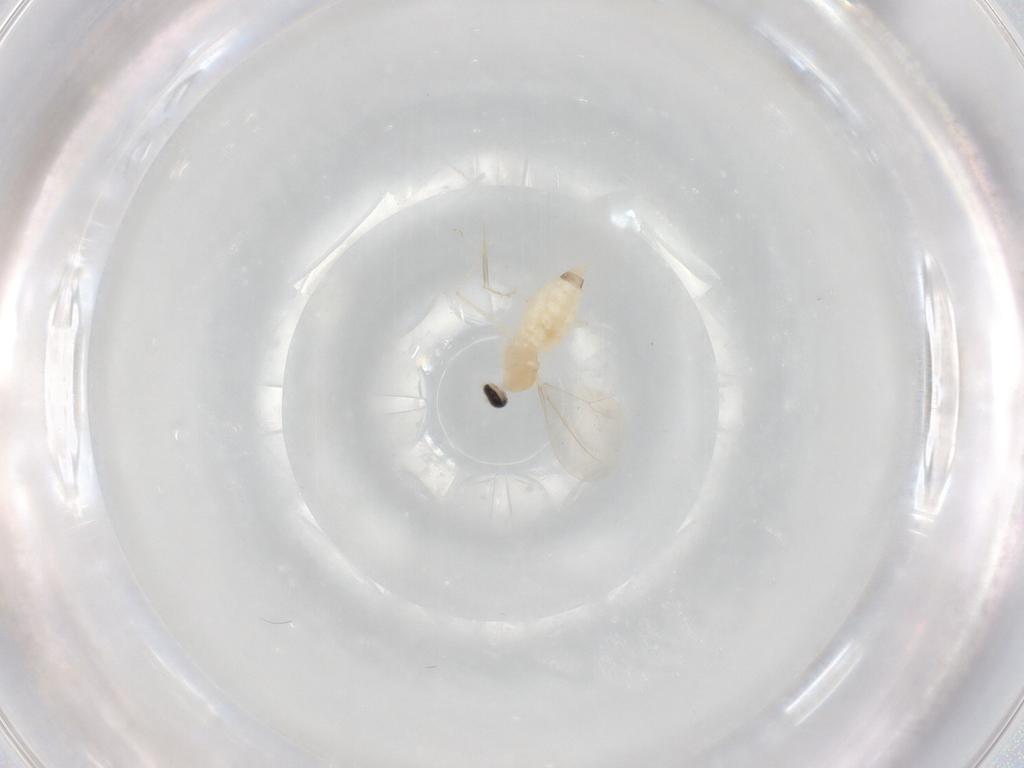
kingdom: Animalia
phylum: Arthropoda
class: Insecta
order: Diptera
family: Cecidomyiidae
